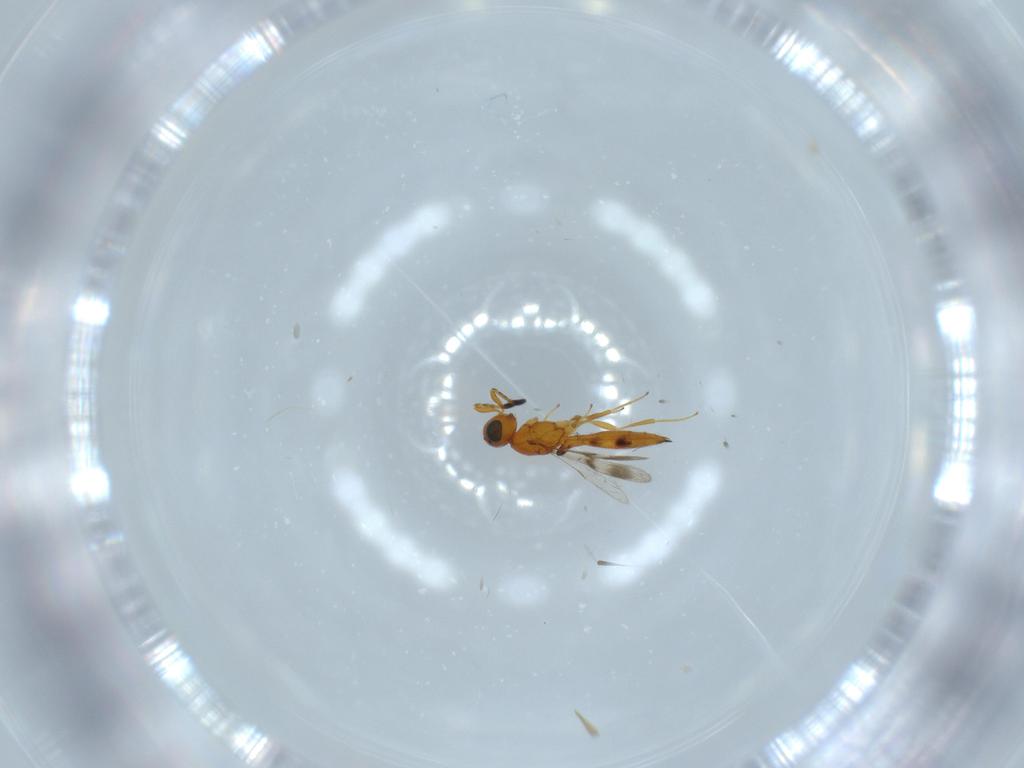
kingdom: Animalia
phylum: Arthropoda
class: Insecta
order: Hymenoptera
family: Scelionidae
